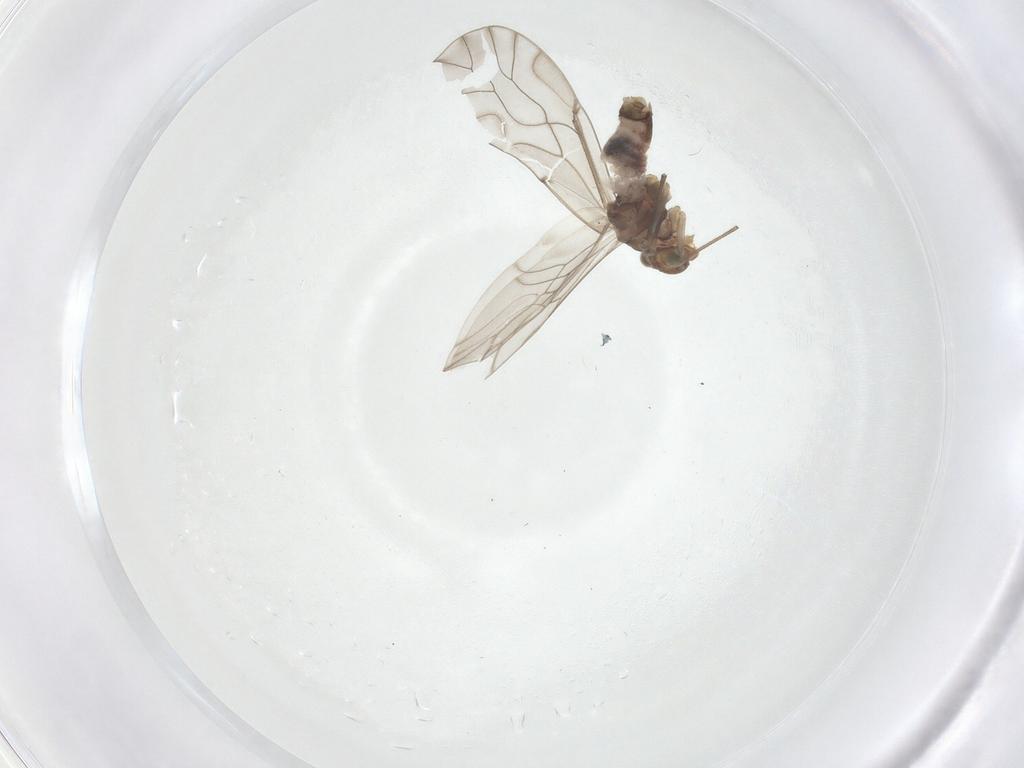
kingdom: Animalia
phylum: Arthropoda
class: Insecta
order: Psocodea
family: Lachesillidae
